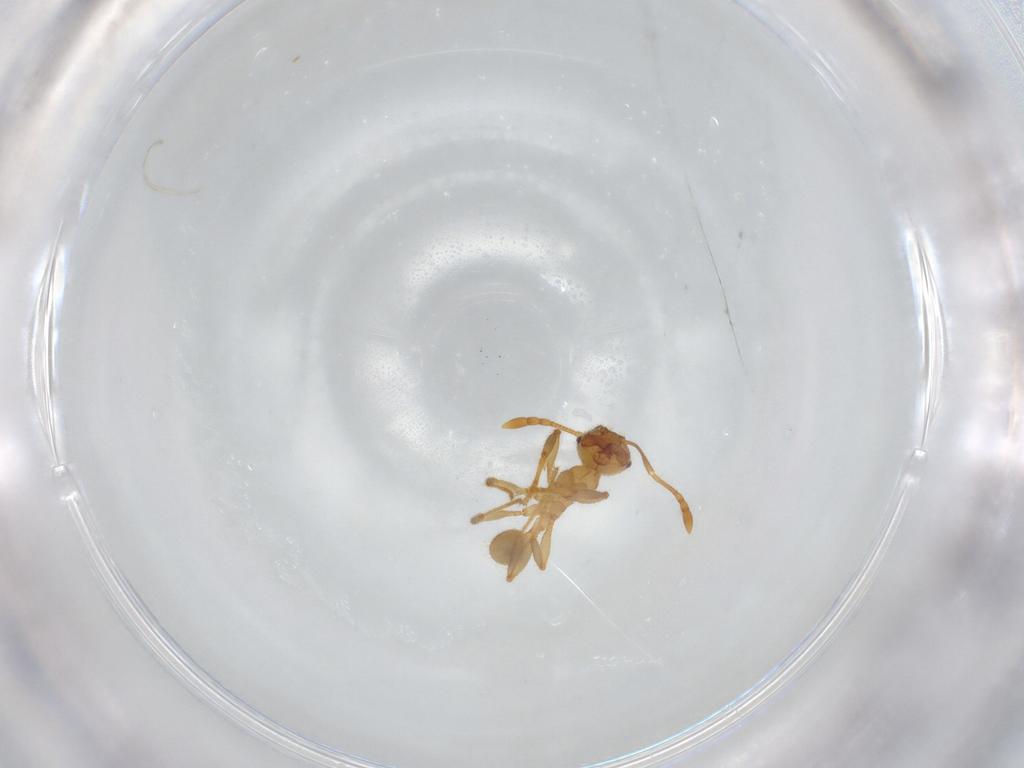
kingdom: Animalia
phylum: Arthropoda
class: Insecta
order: Hymenoptera
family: Formicidae
